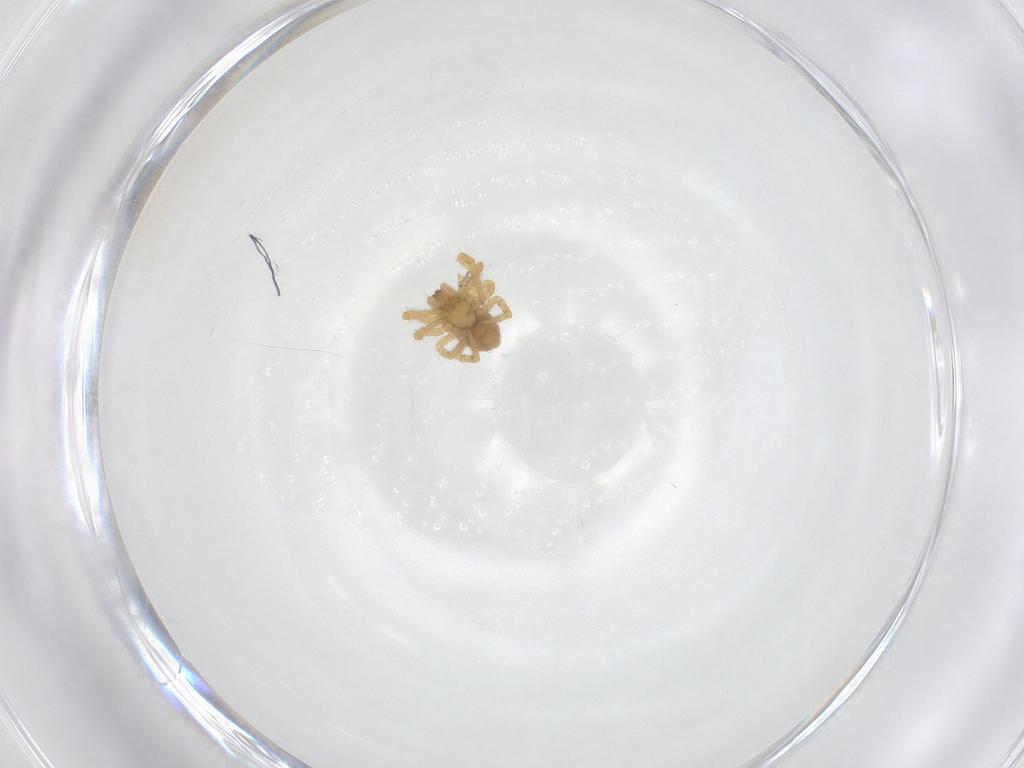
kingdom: Animalia
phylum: Arthropoda
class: Arachnida
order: Araneae
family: Theridiidae
